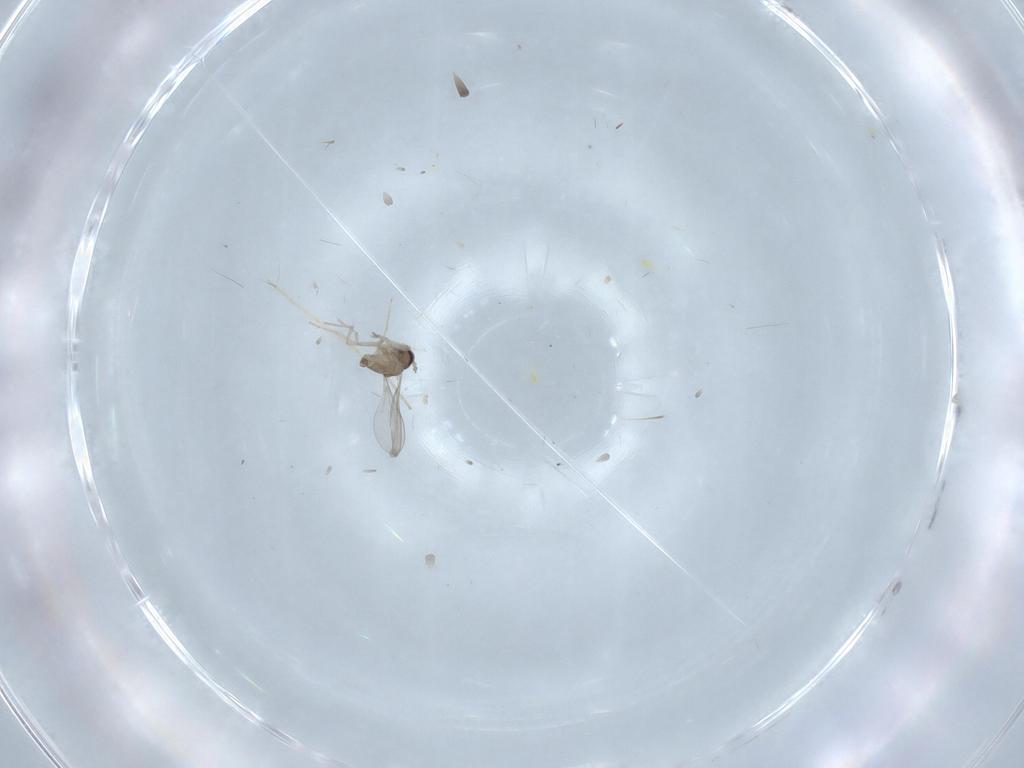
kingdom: Animalia
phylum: Arthropoda
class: Insecta
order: Diptera
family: Cecidomyiidae
